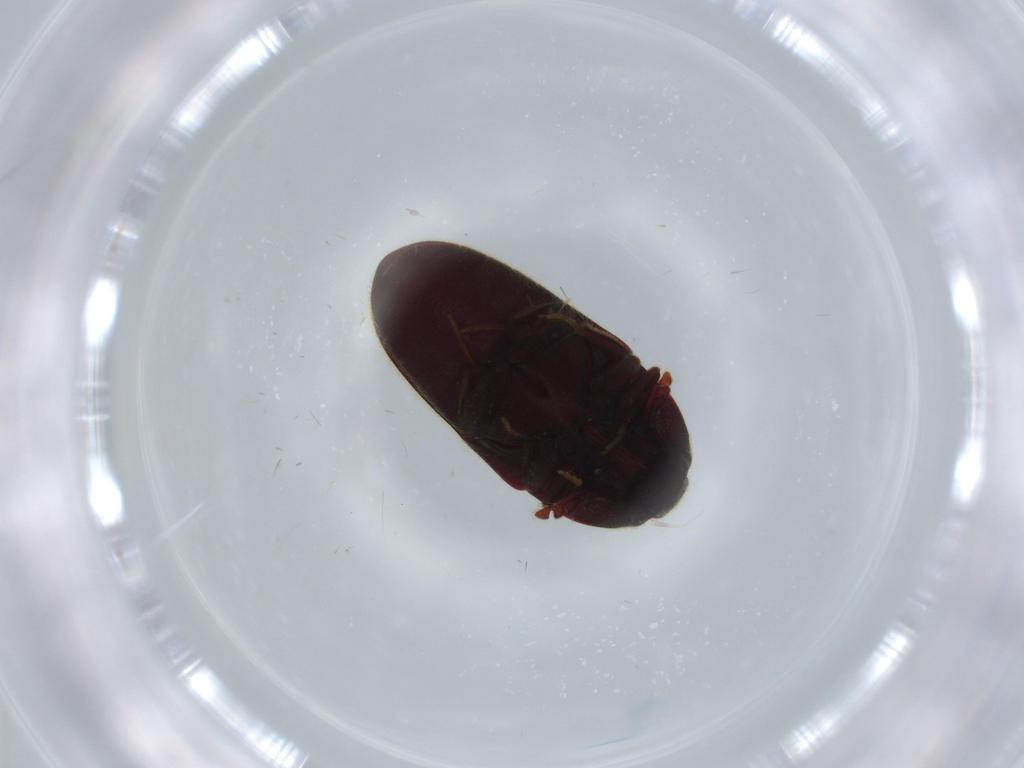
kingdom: Animalia
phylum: Arthropoda
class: Insecta
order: Coleoptera
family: Throscidae
